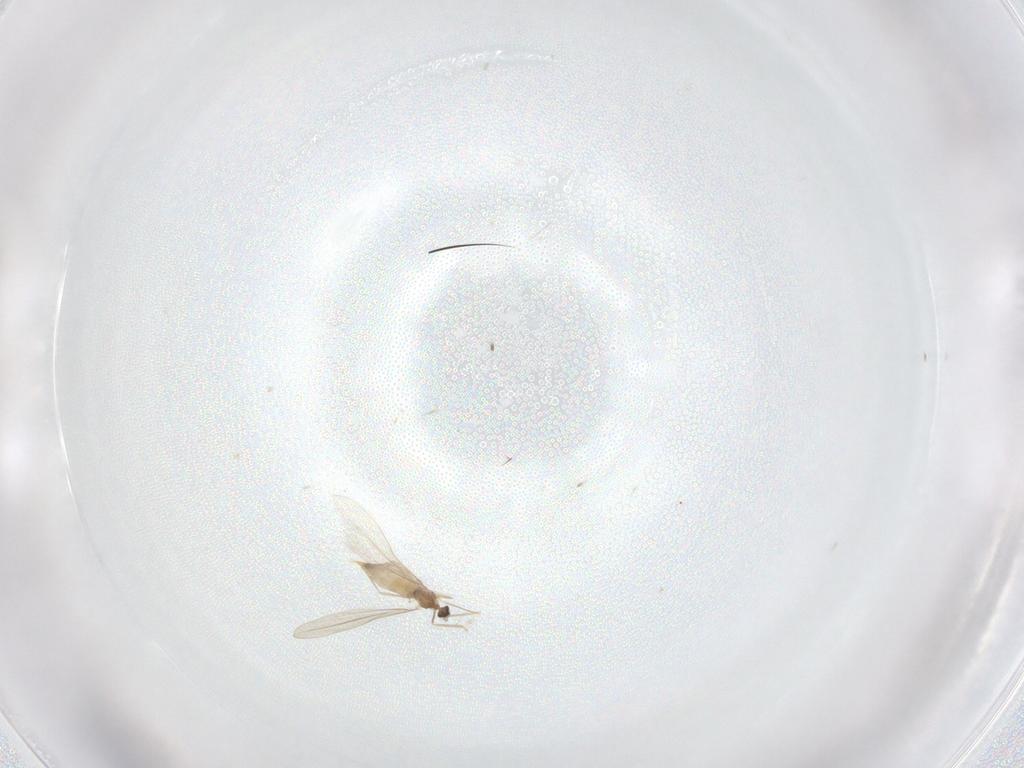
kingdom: Animalia
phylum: Arthropoda
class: Insecta
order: Diptera
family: Cecidomyiidae
